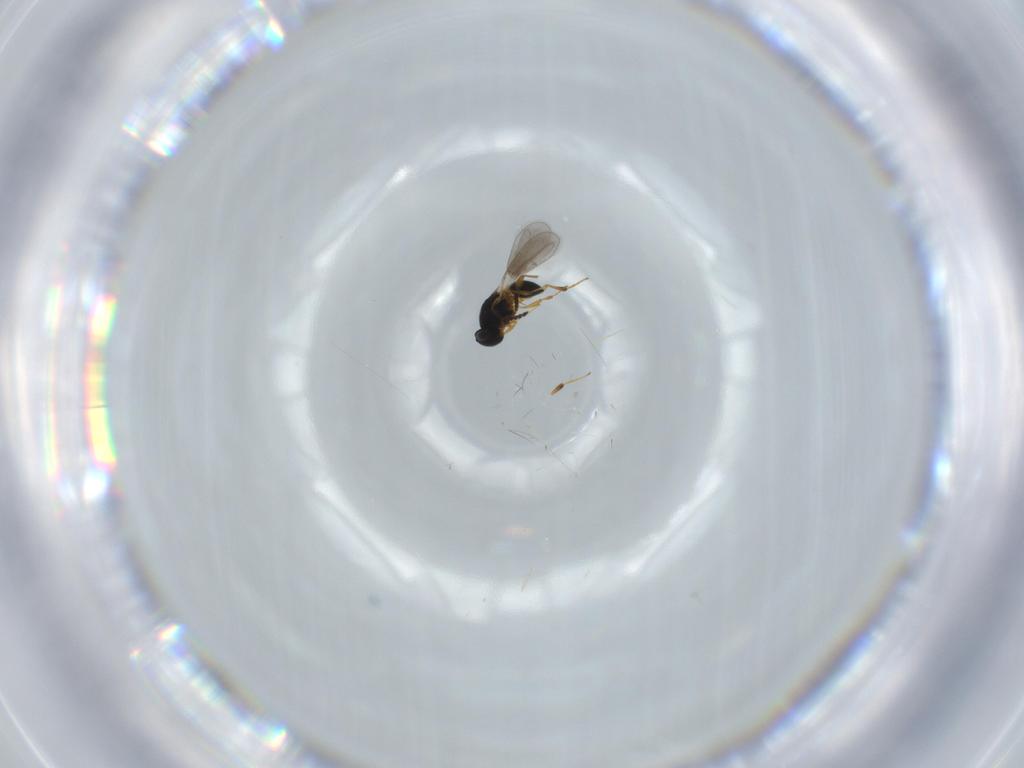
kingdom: Animalia
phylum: Arthropoda
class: Insecta
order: Hymenoptera
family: Platygastridae
